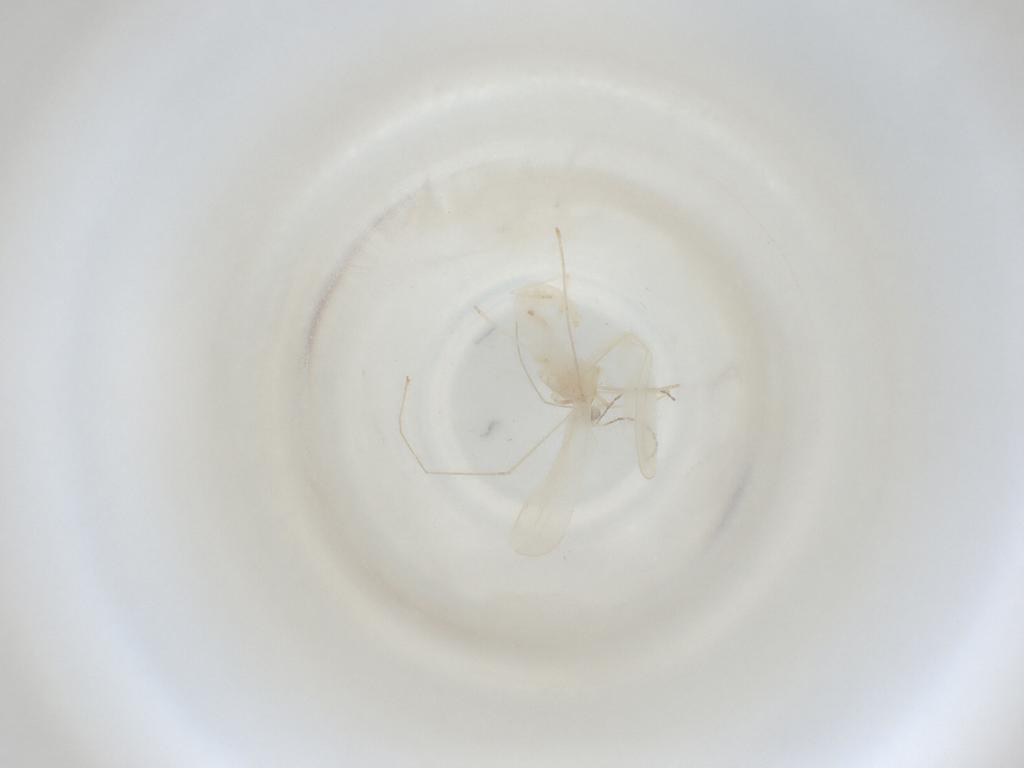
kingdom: Animalia
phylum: Arthropoda
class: Insecta
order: Diptera
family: Cecidomyiidae
